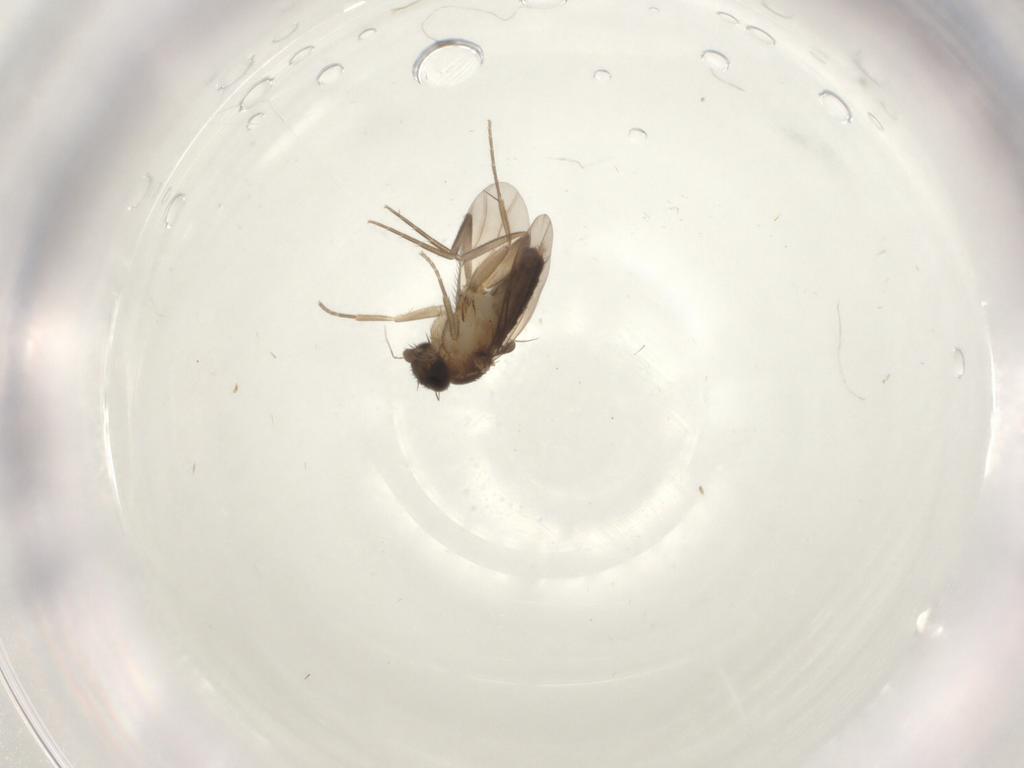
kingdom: Animalia
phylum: Arthropoda
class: Insecta
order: Diptera
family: Phoridae
